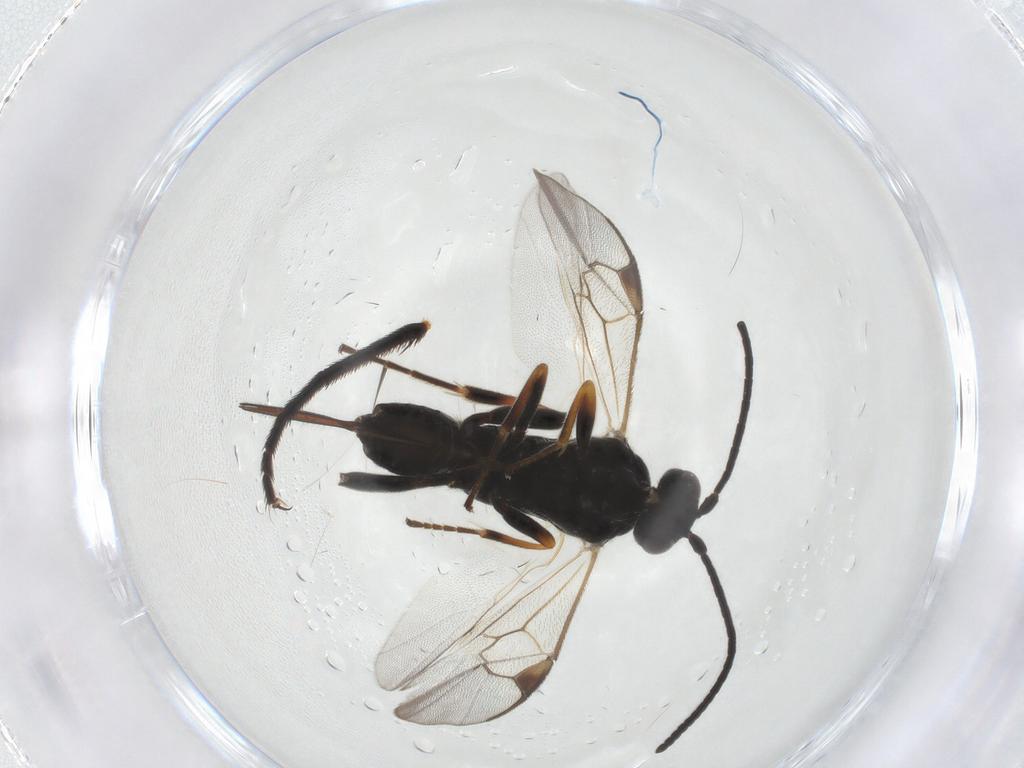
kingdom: Animalia
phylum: Arthropoda
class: Insecta
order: Hymenoptera
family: Braconidae
